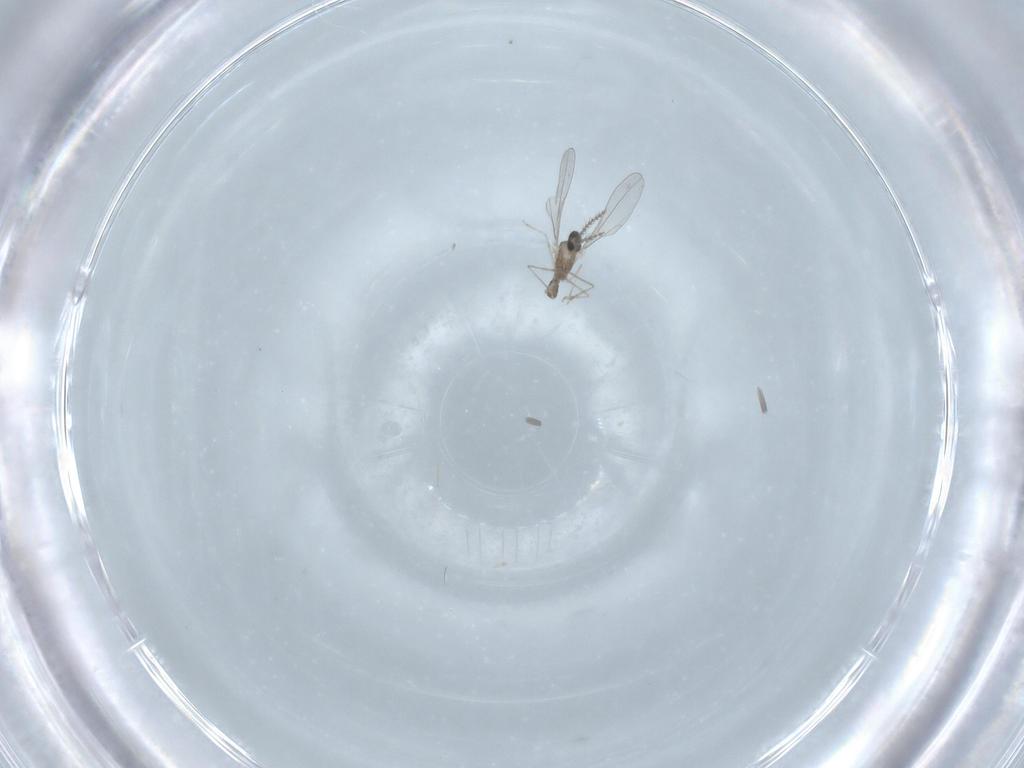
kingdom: Animalia
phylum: Arthropoda
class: Insecta
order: Diptera
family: Cecidomyiidae
